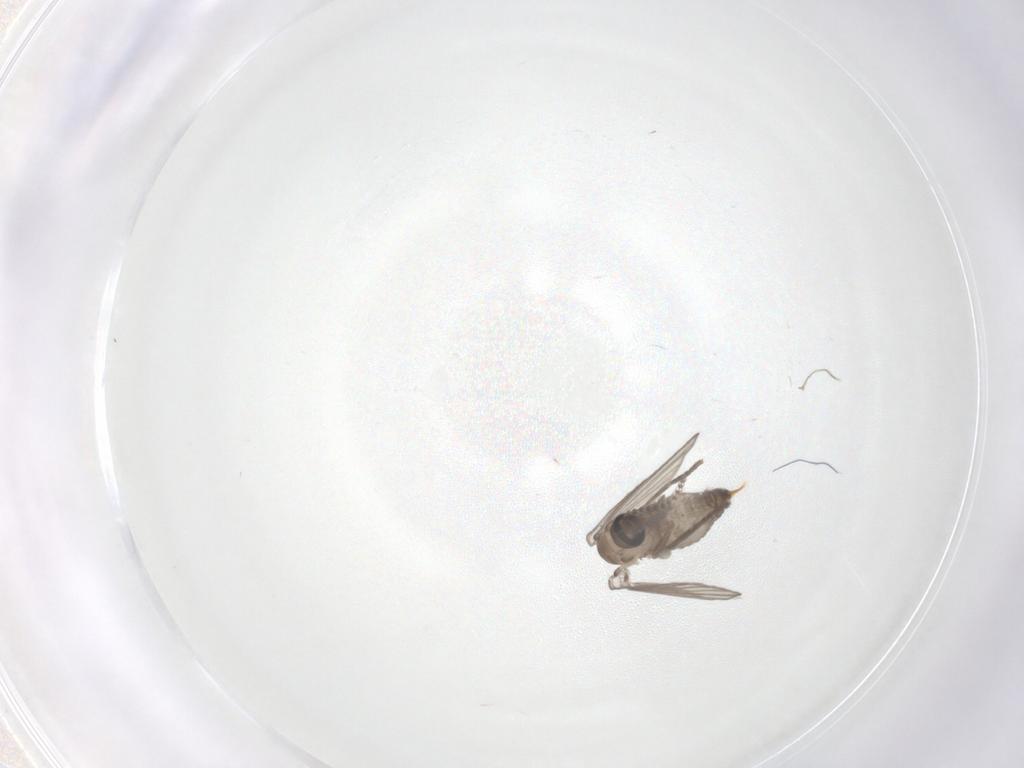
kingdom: Animalia
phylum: Arthropoda
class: Insecta
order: Diptera
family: Psychodidae
